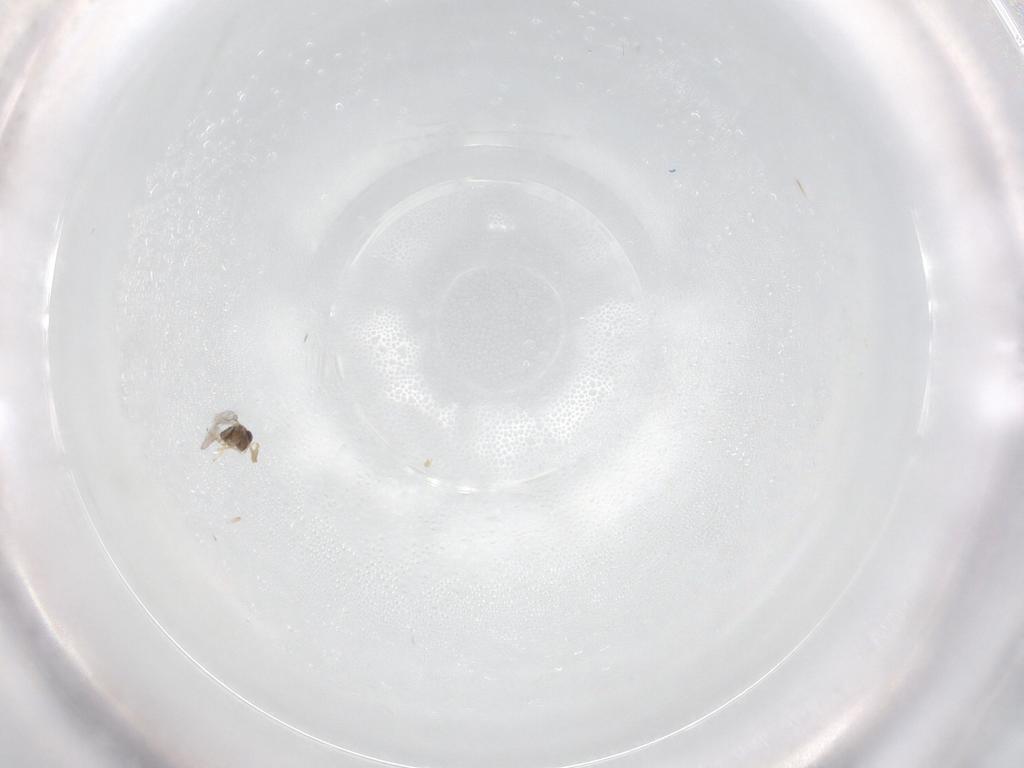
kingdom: Animalia
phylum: Arthropoda
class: Insecta
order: Hymenoptera
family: Encyrtidae
